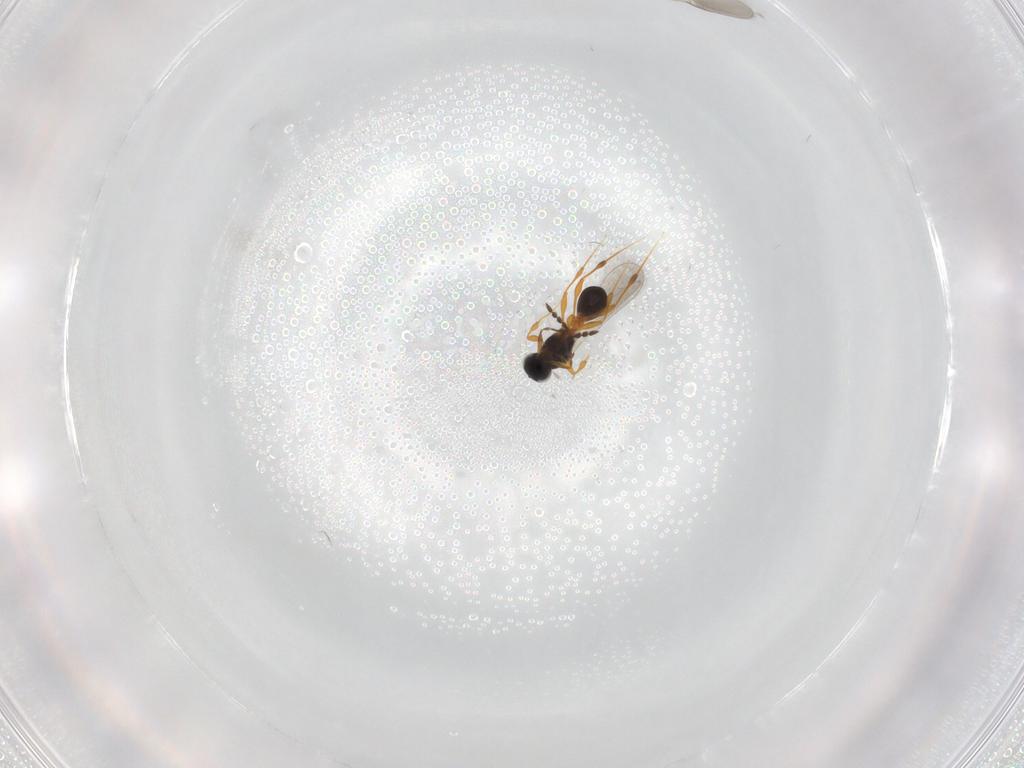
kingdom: Animalia
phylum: Arthropoda
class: Insecta
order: Hymenoptera
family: Platygastridae
